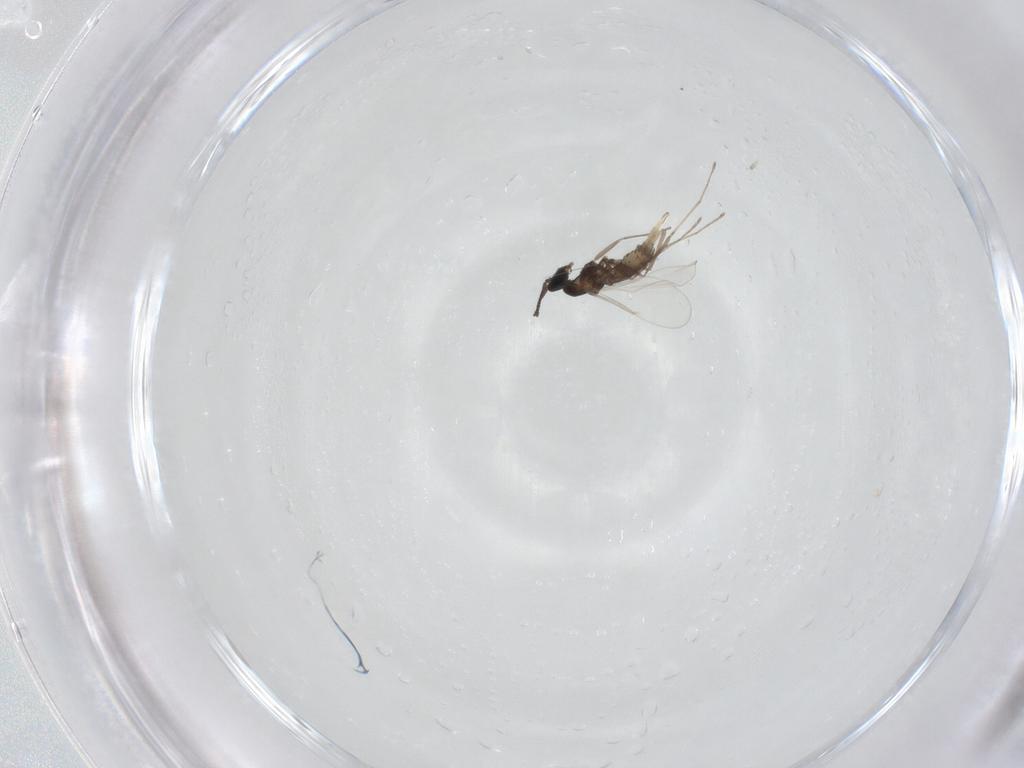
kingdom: Animalia
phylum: Arthropoda
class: Insecta
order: Diptera
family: Cecidomyiidae
